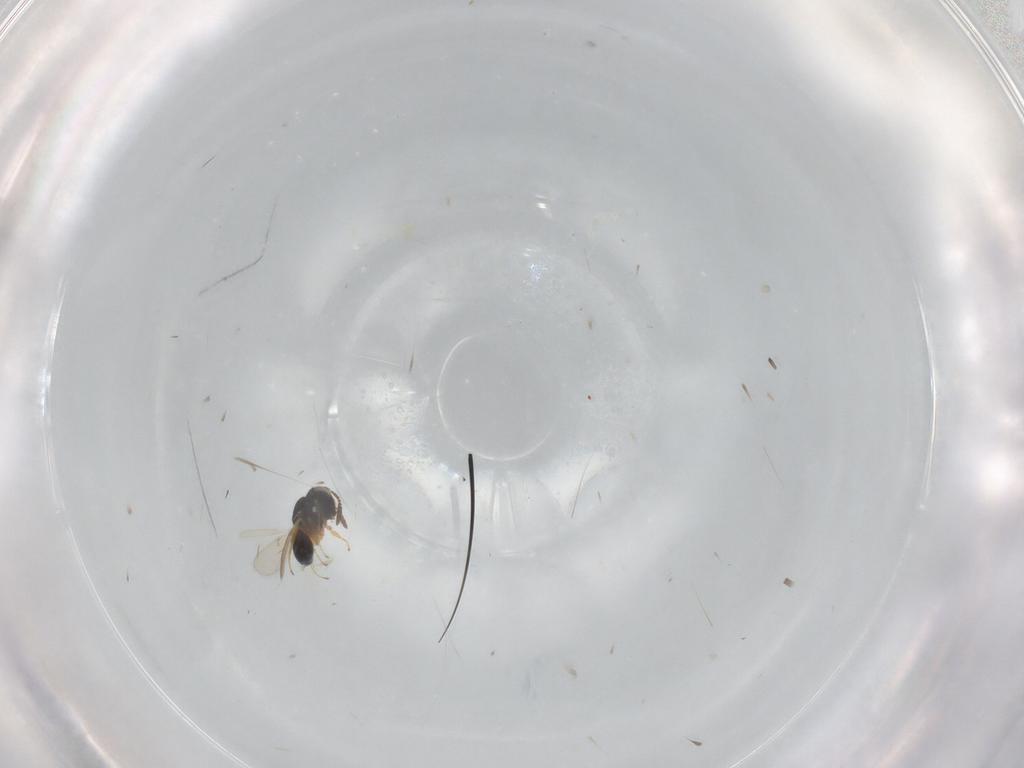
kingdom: Animalia
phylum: Arthropoda
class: Insecta
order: Hymenoptera
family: Scelionidae
